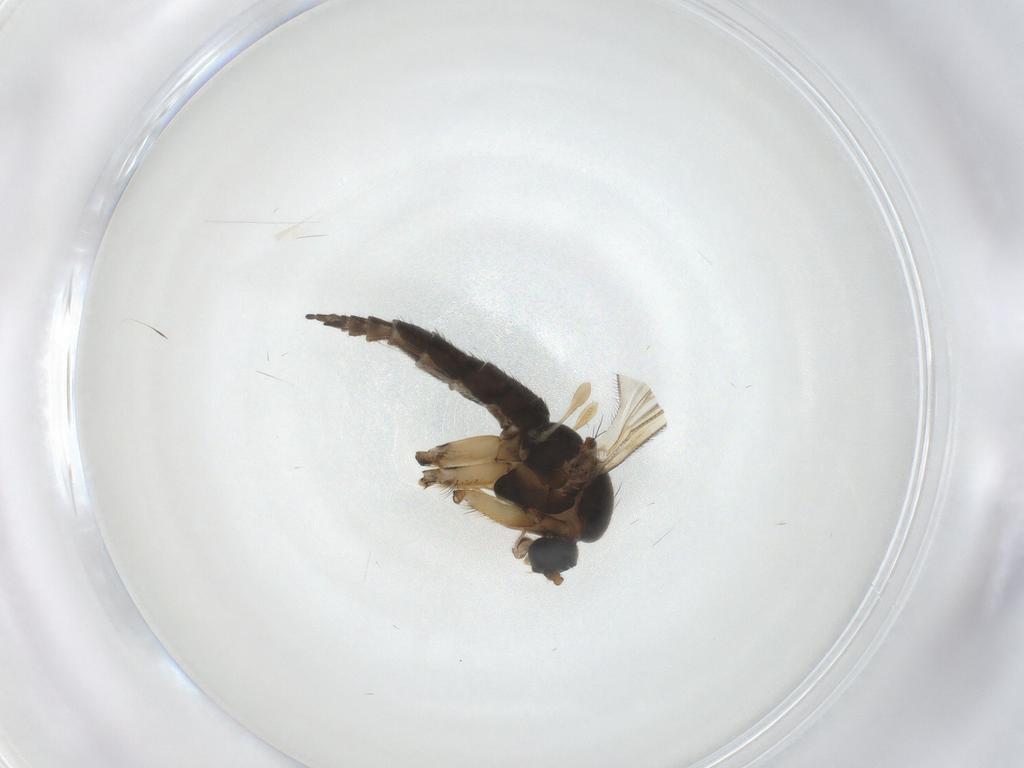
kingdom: Animalia
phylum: Arthropoda
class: Insecta
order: Diptera
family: Sciaridae
